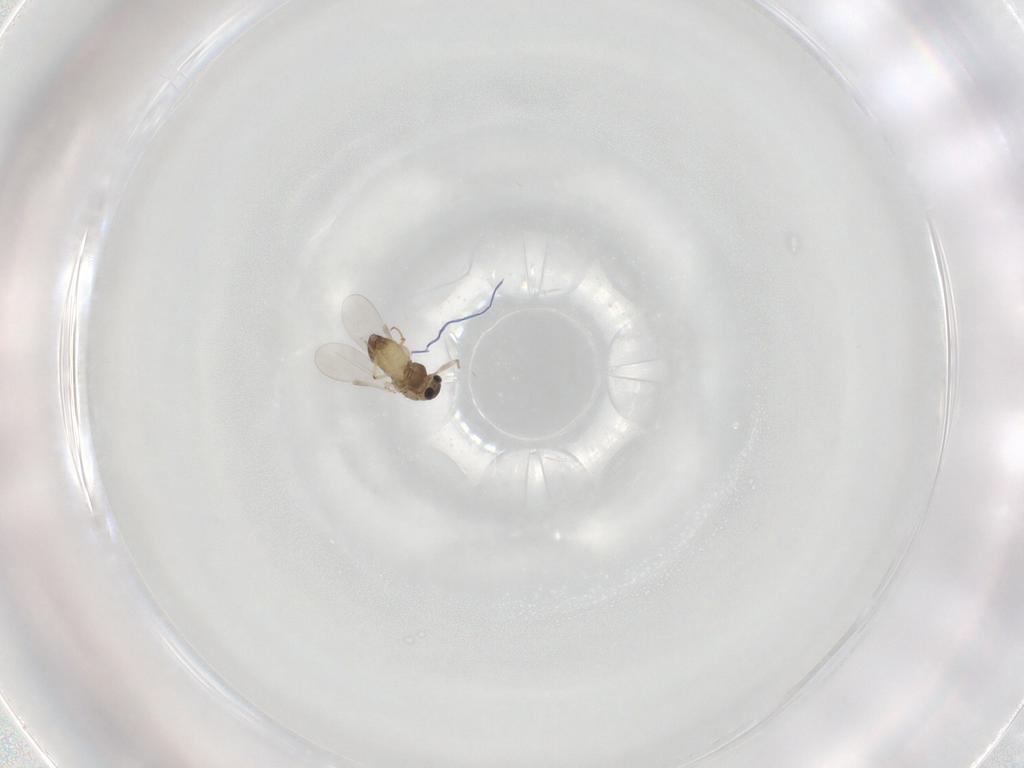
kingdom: Animalia
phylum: Arthropoda
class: Insecta
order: Diptera
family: Chironomidae
